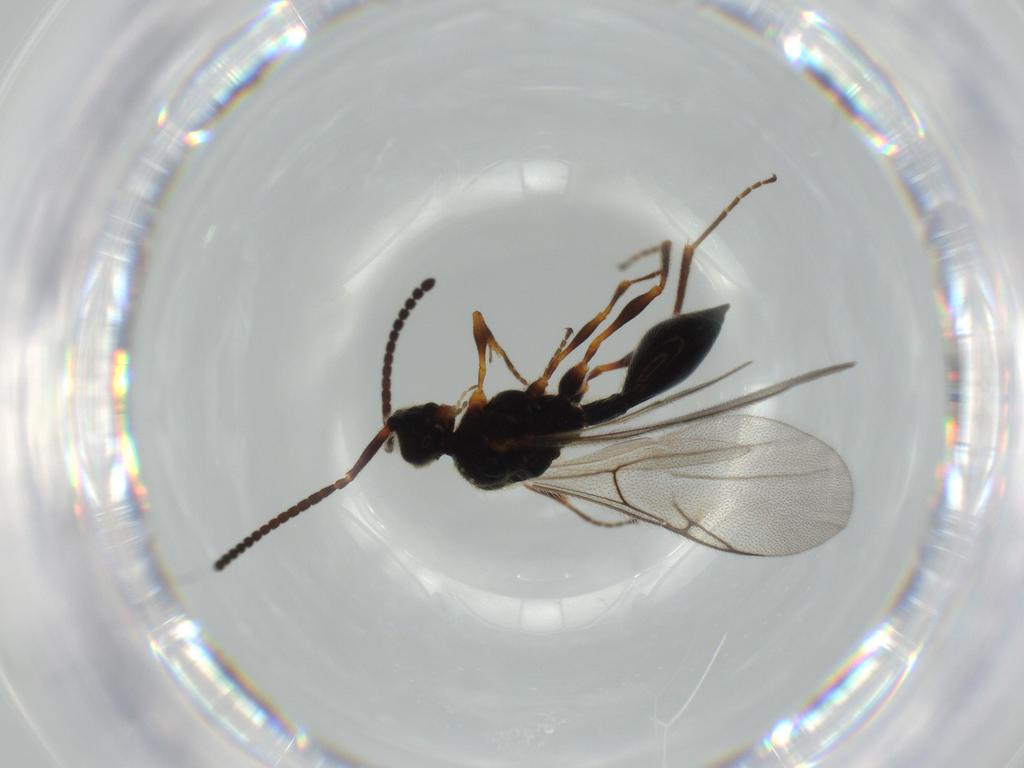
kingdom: Animalia
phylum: Arthropoda
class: Insecta
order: Hymenoptera
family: Diapriidae
